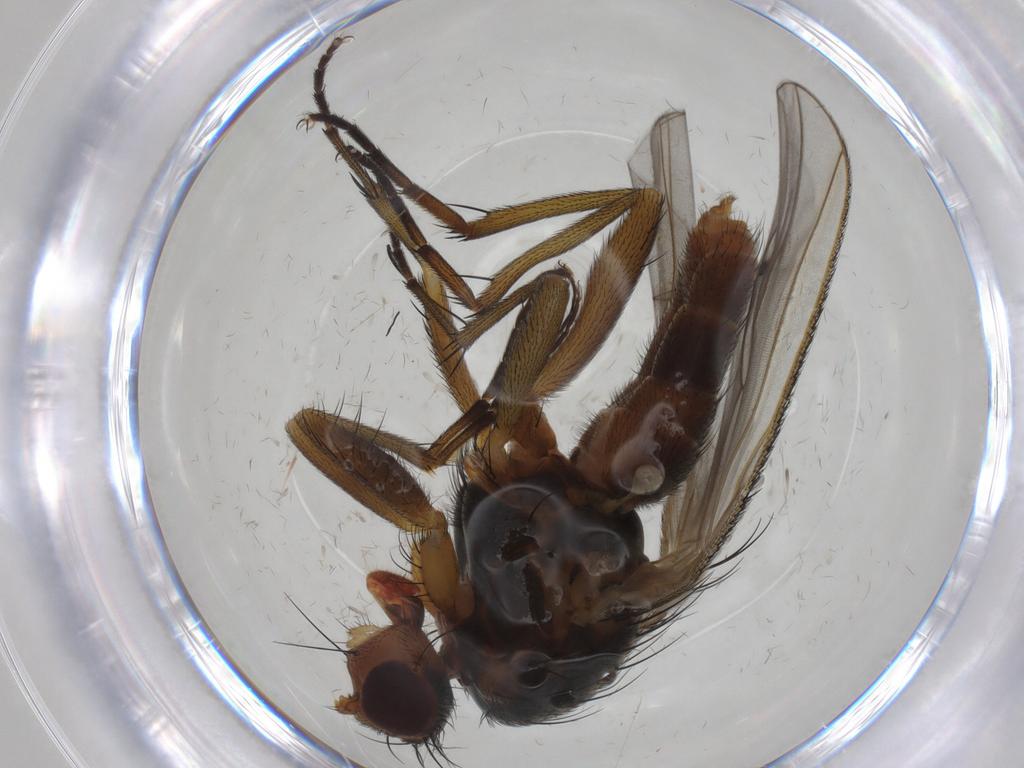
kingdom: Animalia
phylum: Arthropoda
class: Insecta
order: Diptera
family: Heleomyzidae
